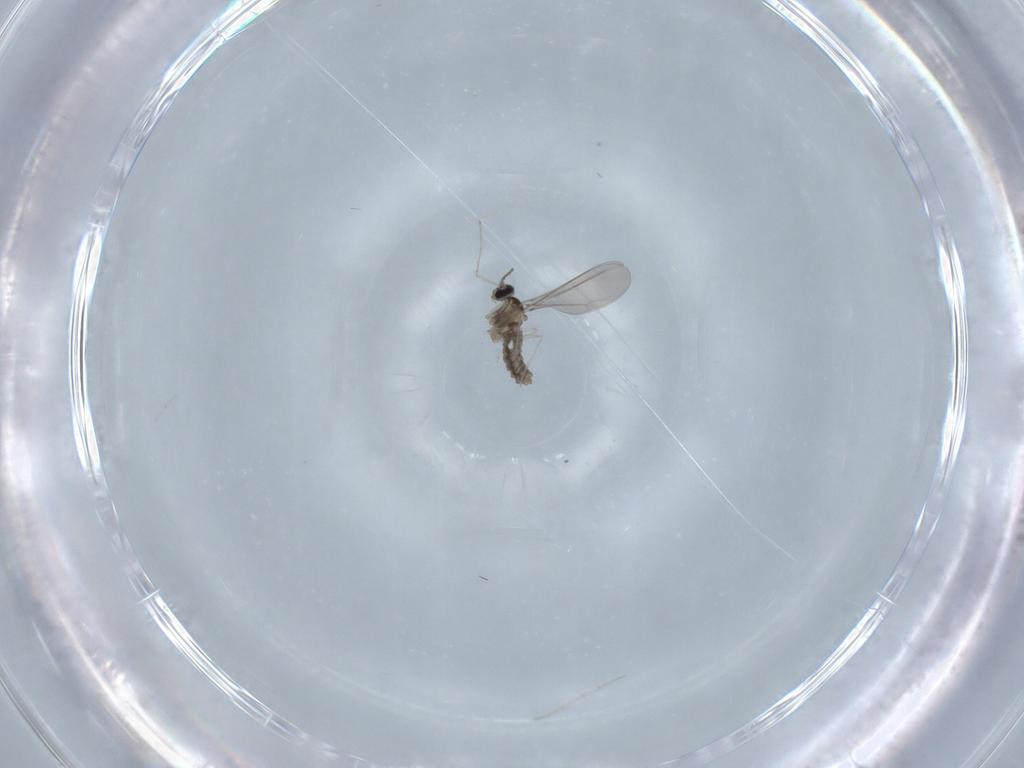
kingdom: Animalia
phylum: Arthropoda
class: Insecta
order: Diptera
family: Cecidomyiidae
